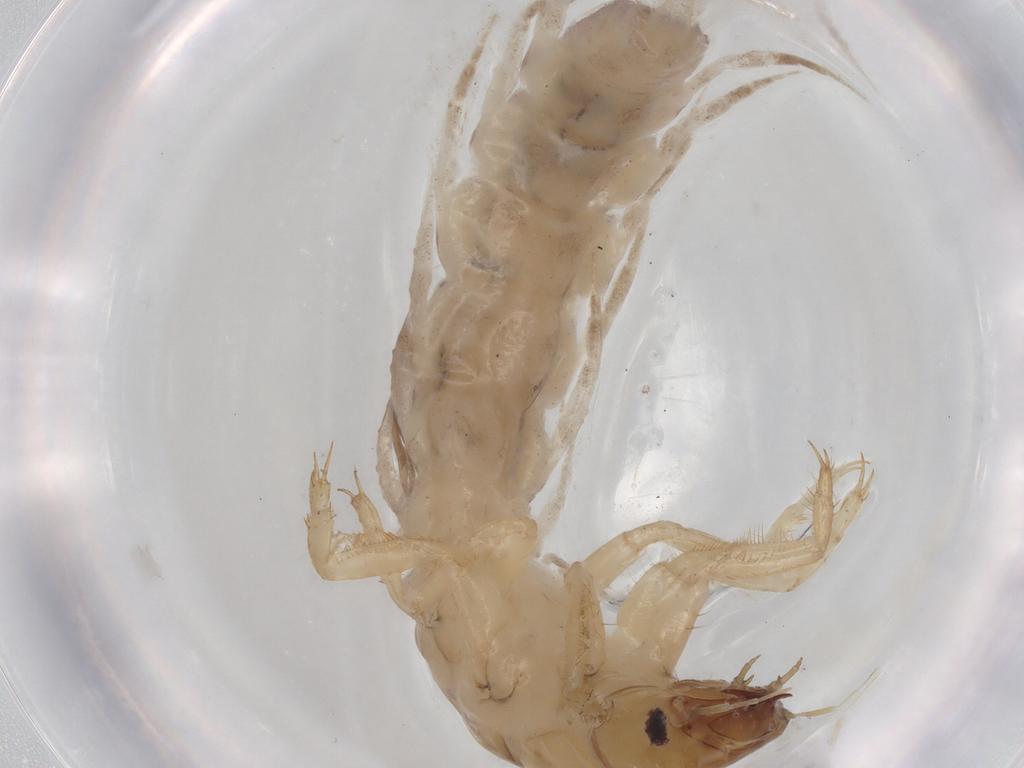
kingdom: Animalia
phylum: Arthropoda
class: Insecta
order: Megaloptera
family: Sialidae
